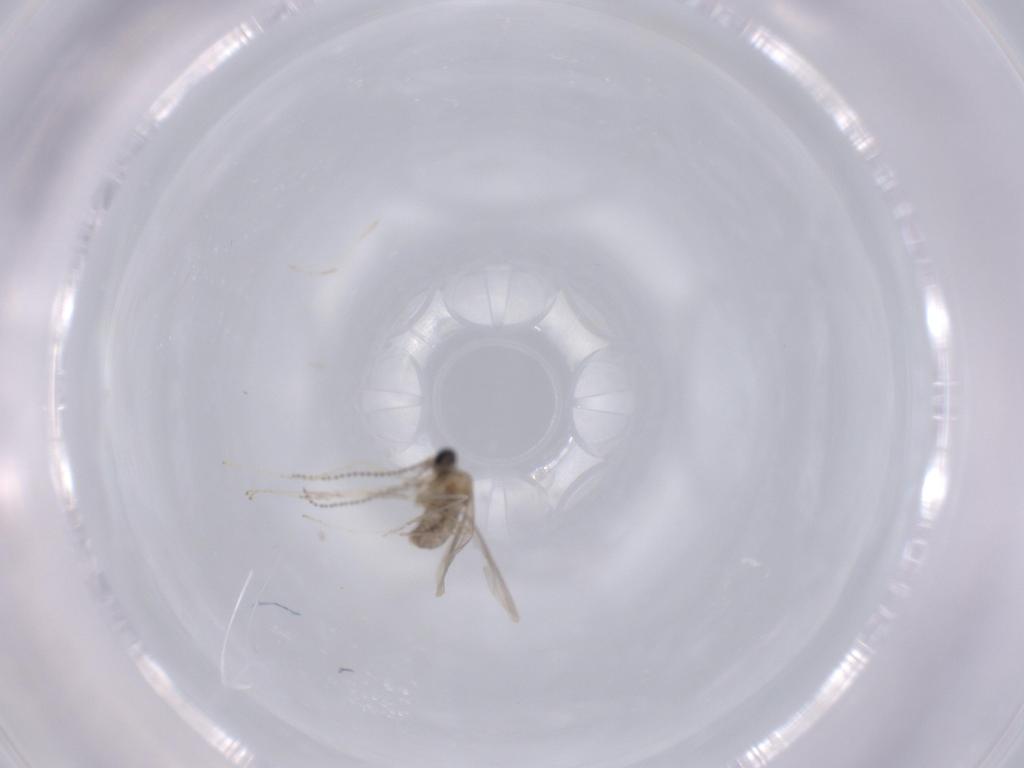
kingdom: Animalia
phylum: Arthropoda
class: Insecta
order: Diptera
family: Cecidomyiidae
